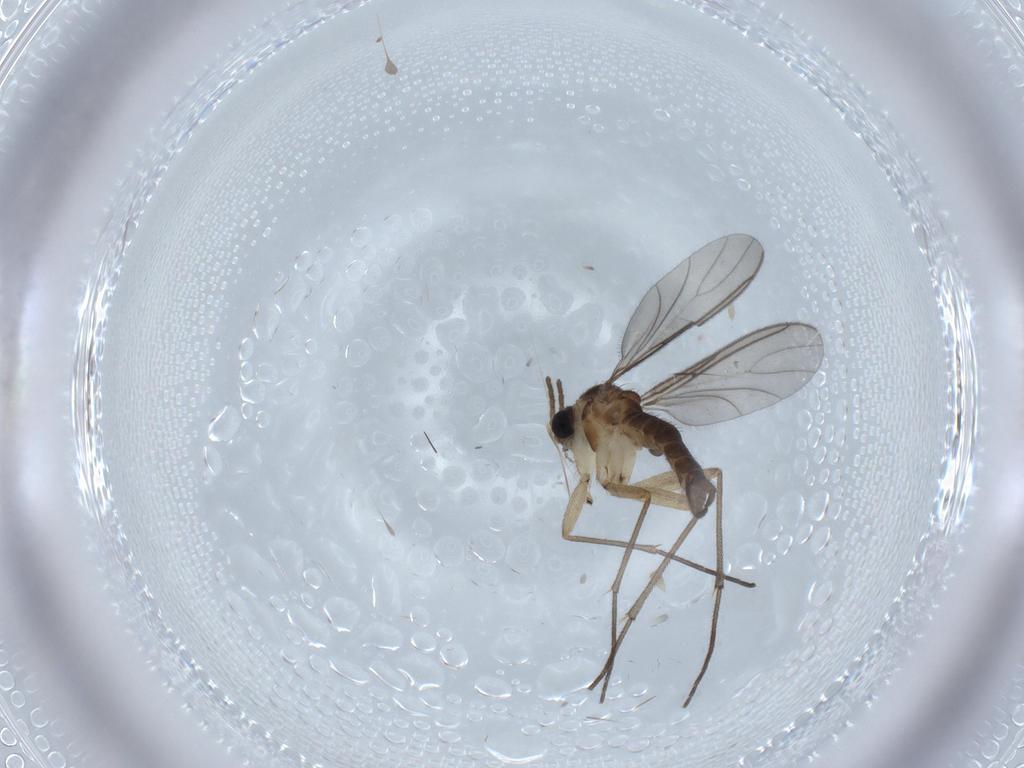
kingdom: Animalia
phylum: Arthropoda
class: Insecta
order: Diptera
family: Sciaridae
